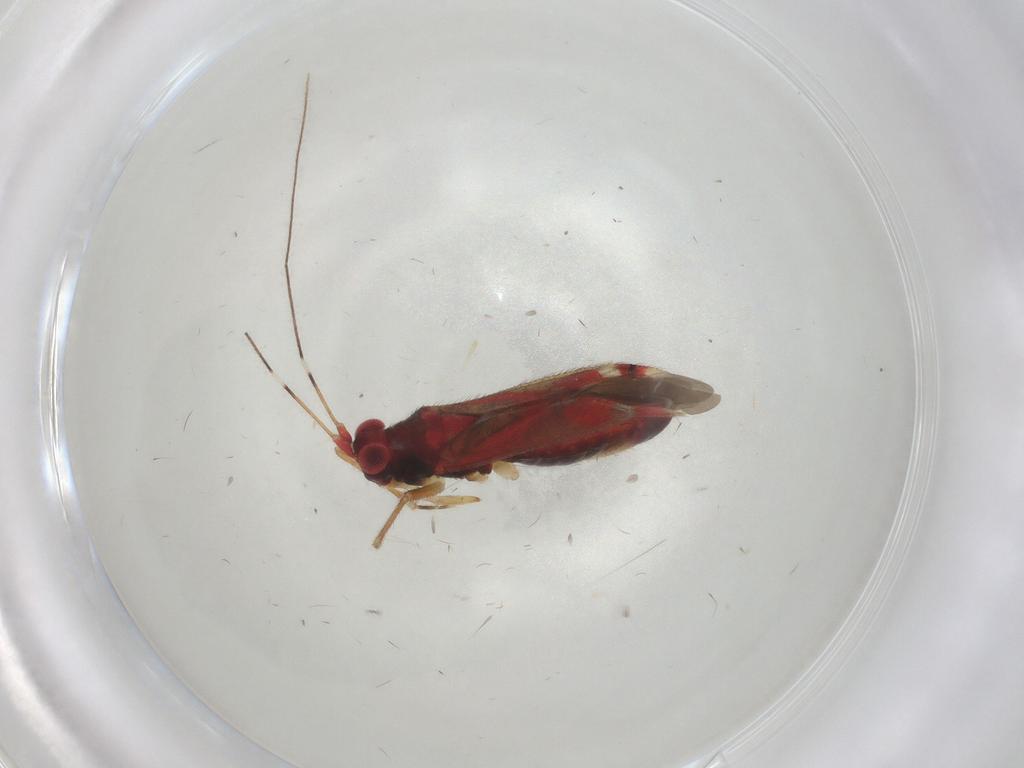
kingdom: Animalia
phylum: Arthropoda
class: Insecta
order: Hemiptera
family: Miridae
